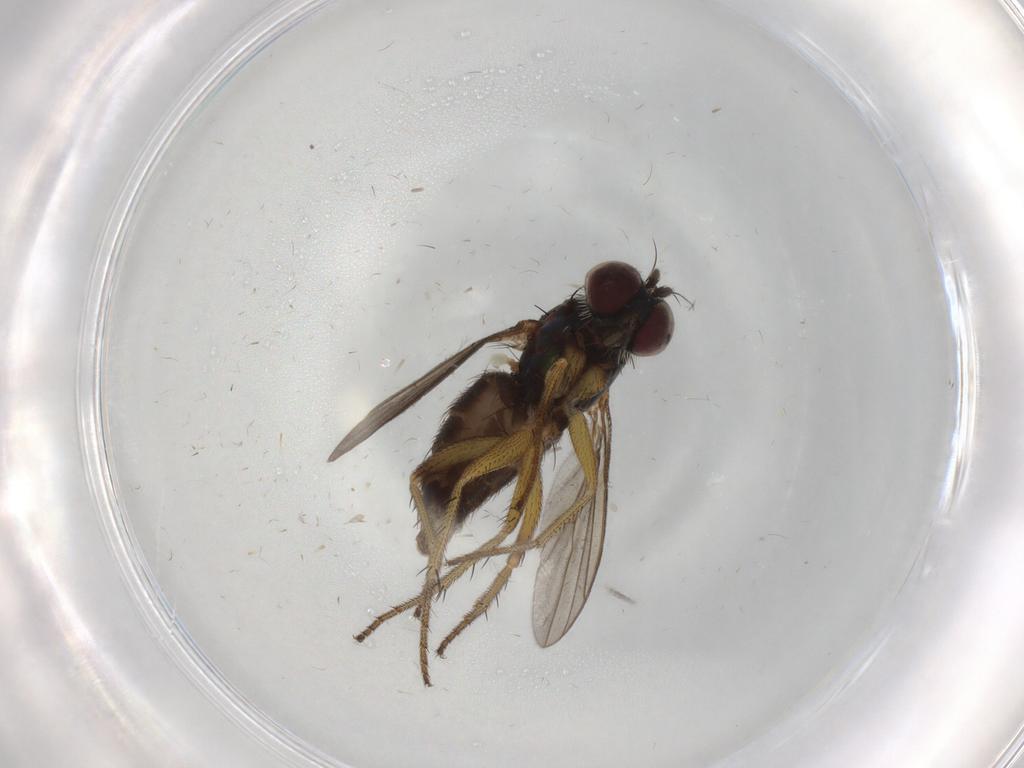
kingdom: Animalia
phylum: Arthropoda
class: Insecta
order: Diptera
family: Dolichopodidae
